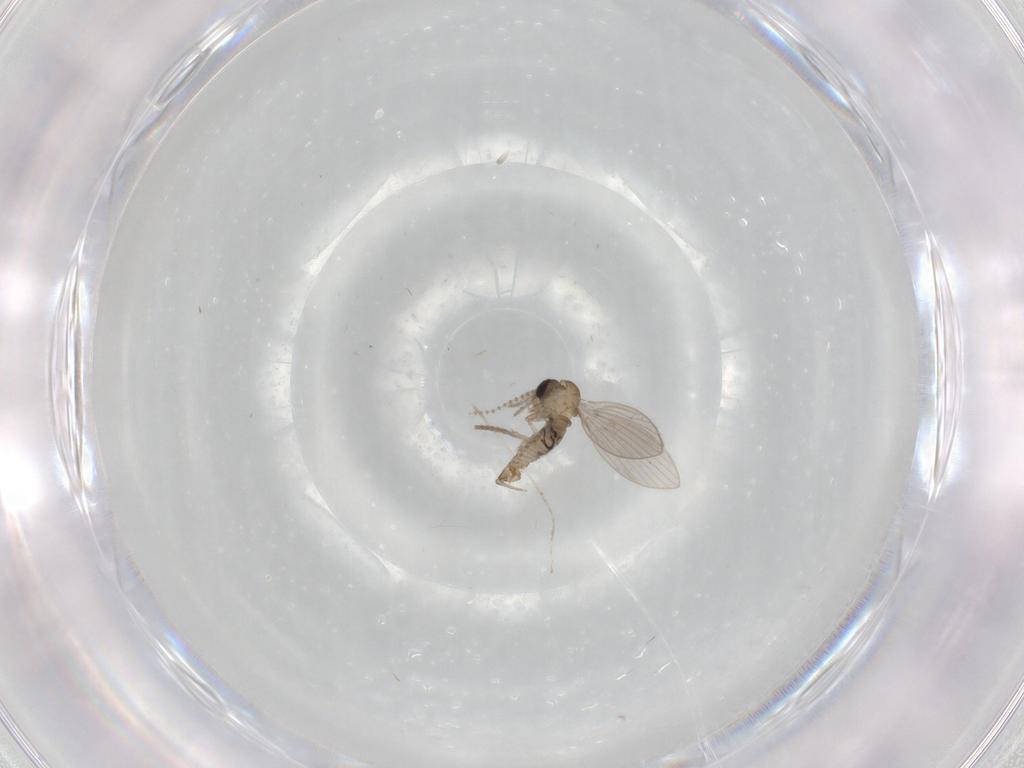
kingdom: Animalia
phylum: Arthropoda
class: Insecta
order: Diptera
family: Psychodidae
